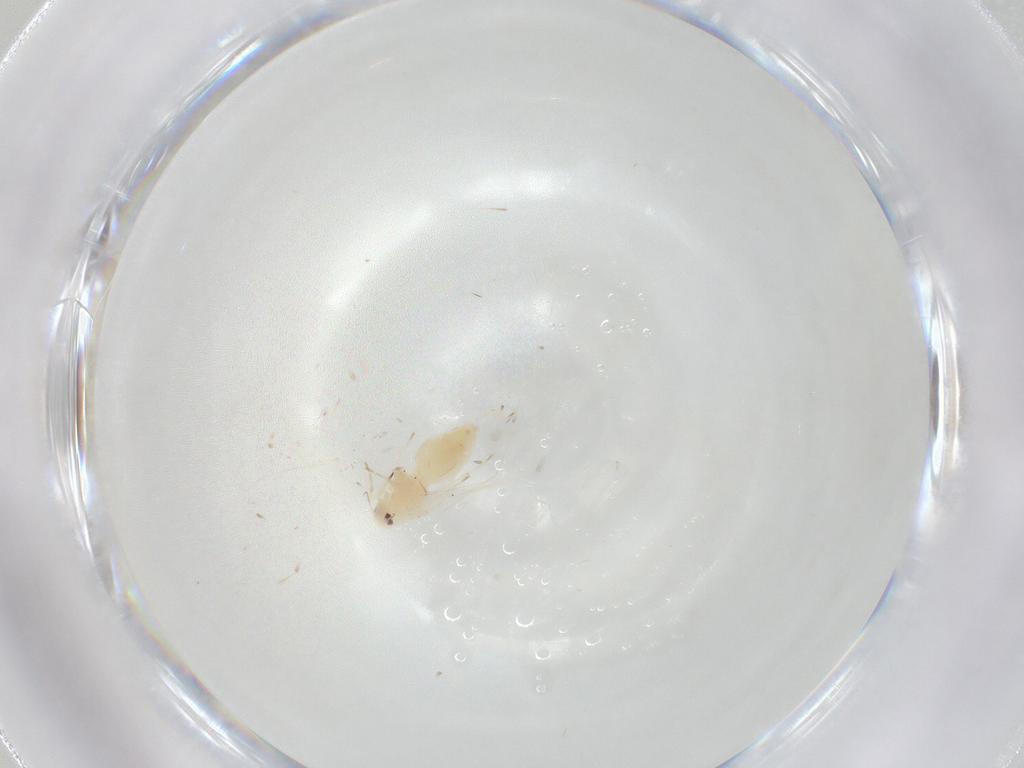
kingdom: Animalia
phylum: Arthropoda
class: Insecta
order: Hemiptera
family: Aleyrodidae
